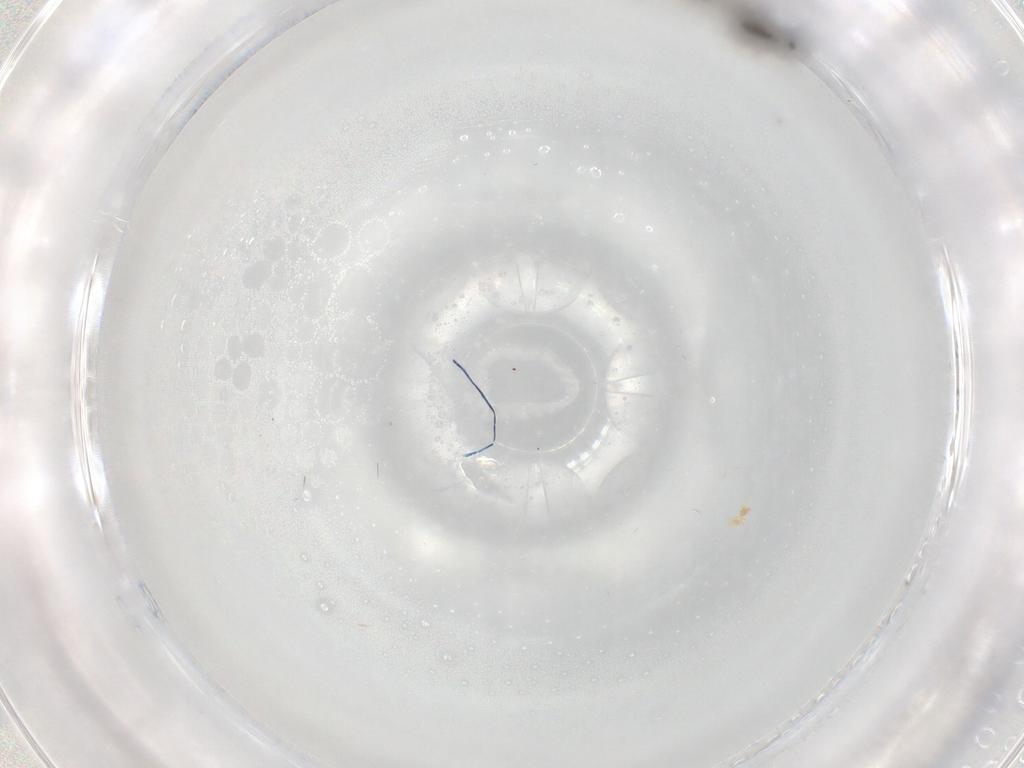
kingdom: Animalia
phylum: Arthropoda
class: Insecta
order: Diptera
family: Cecidomyiidae
